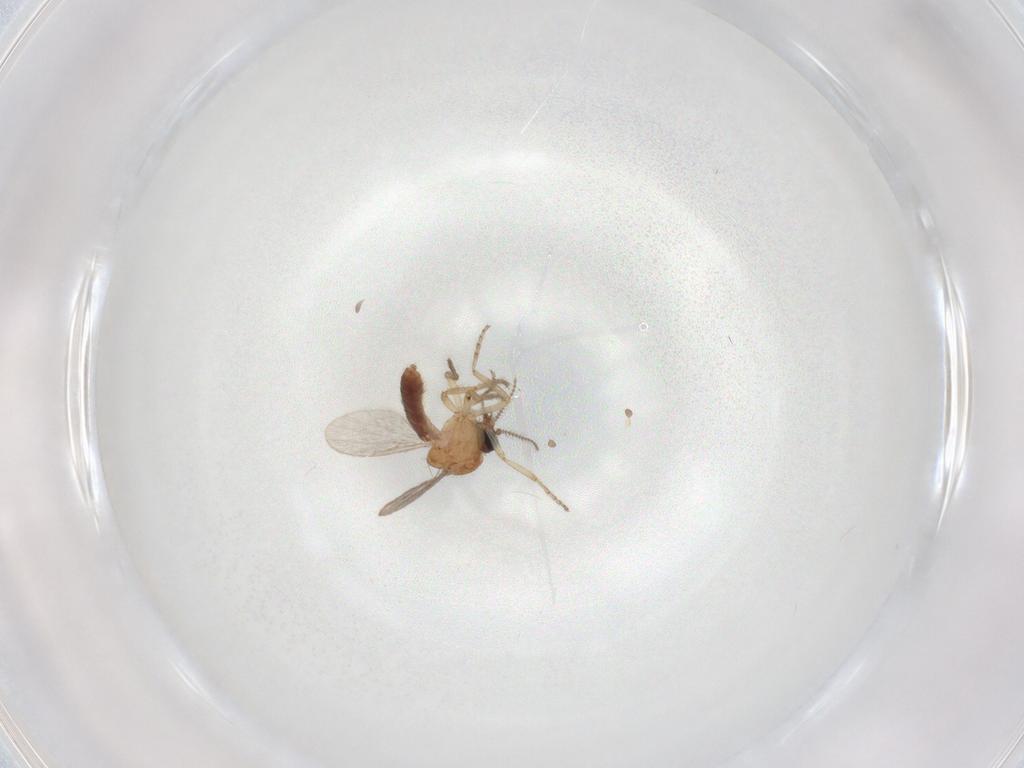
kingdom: Animalia
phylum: Arthropoda
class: Insecta
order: Diptera
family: Ceratopogonidae
